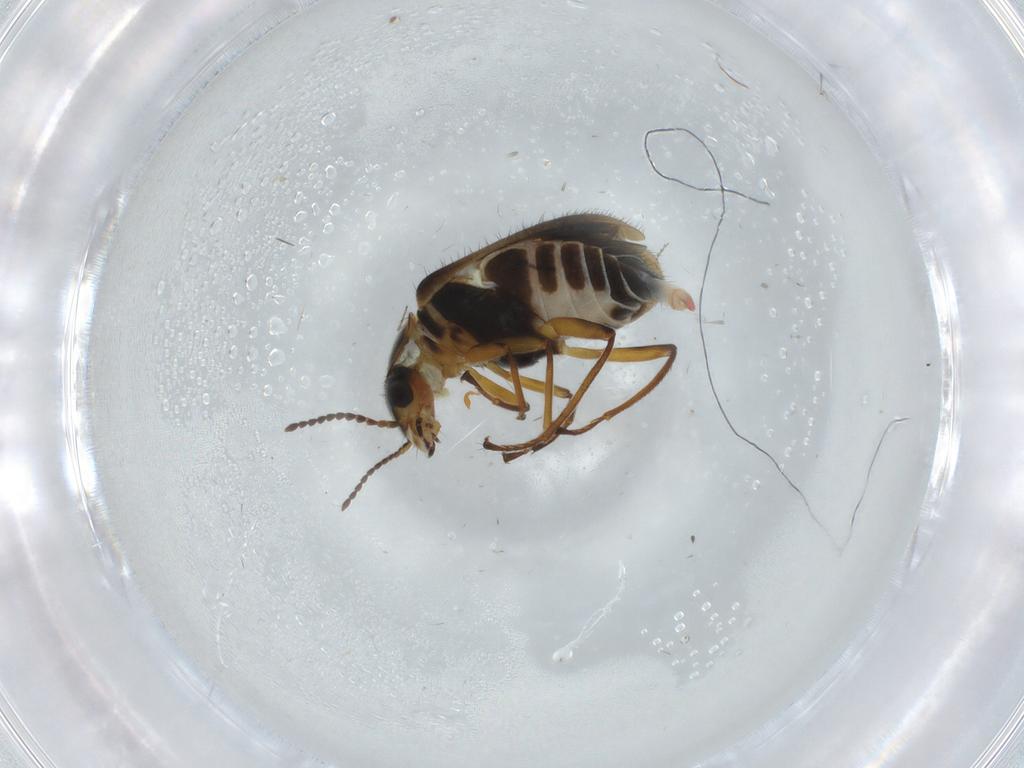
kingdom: Animalia
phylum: Arthropoda
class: Insecta
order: Coleoptera
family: Melyridae
